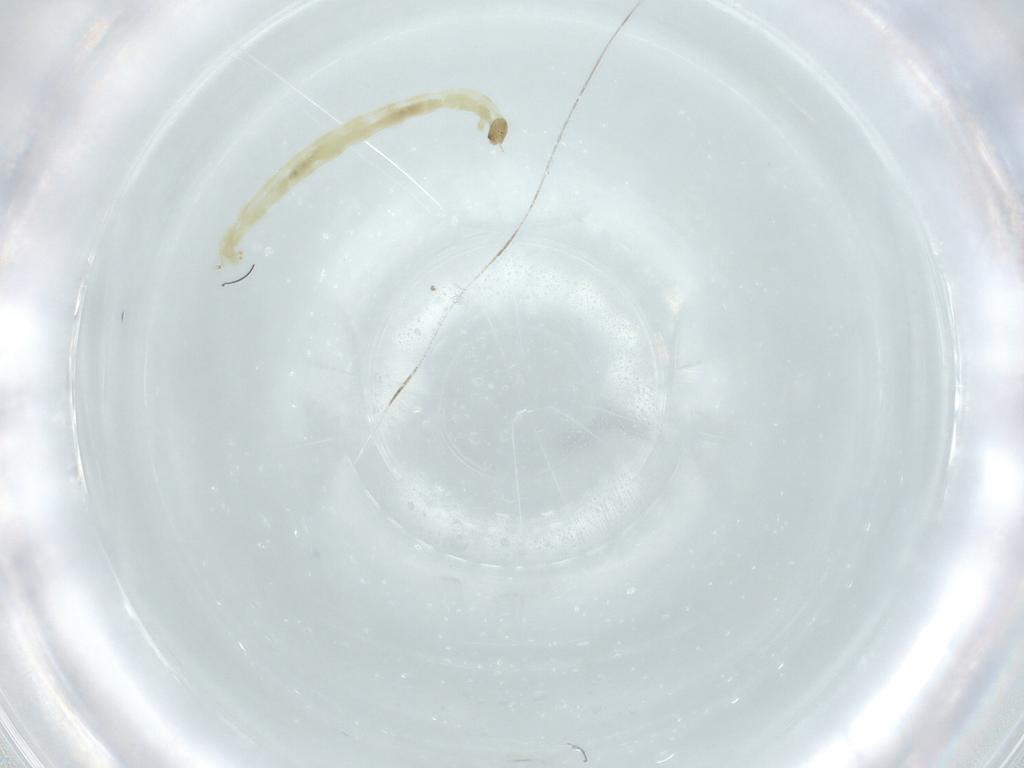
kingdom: Animalia
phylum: Arthropoda
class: Insecta
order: Diptera
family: Chironomidae
